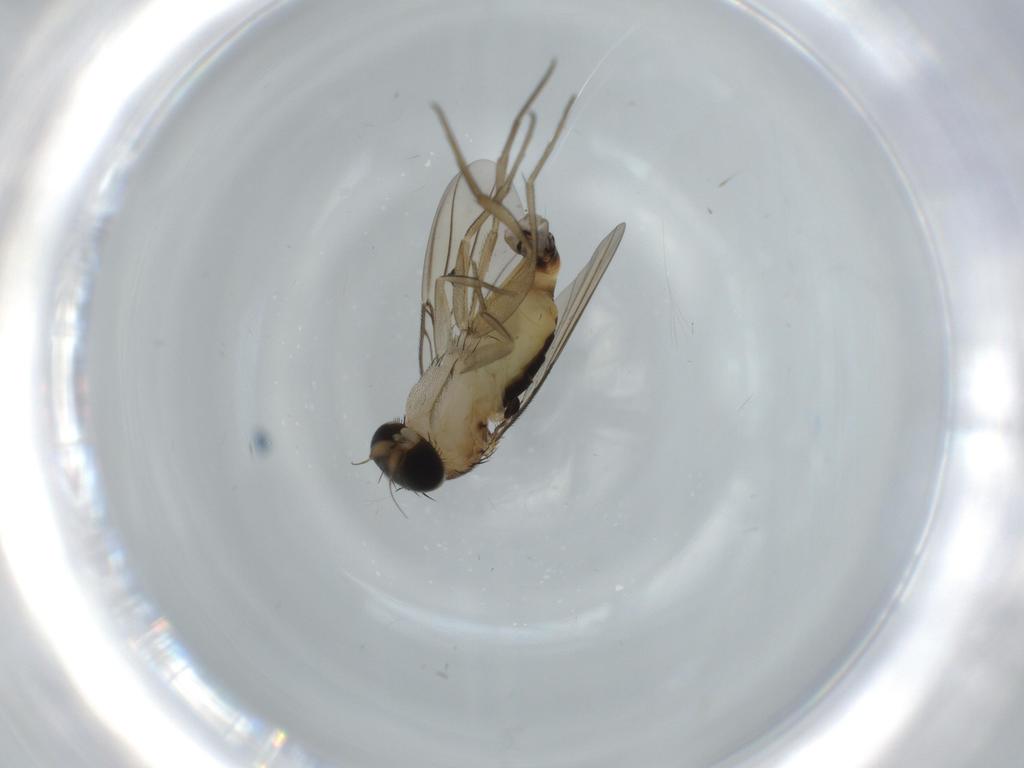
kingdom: Animalia
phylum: Arthropoda
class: Insecta
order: Diptera
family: Phoridae
